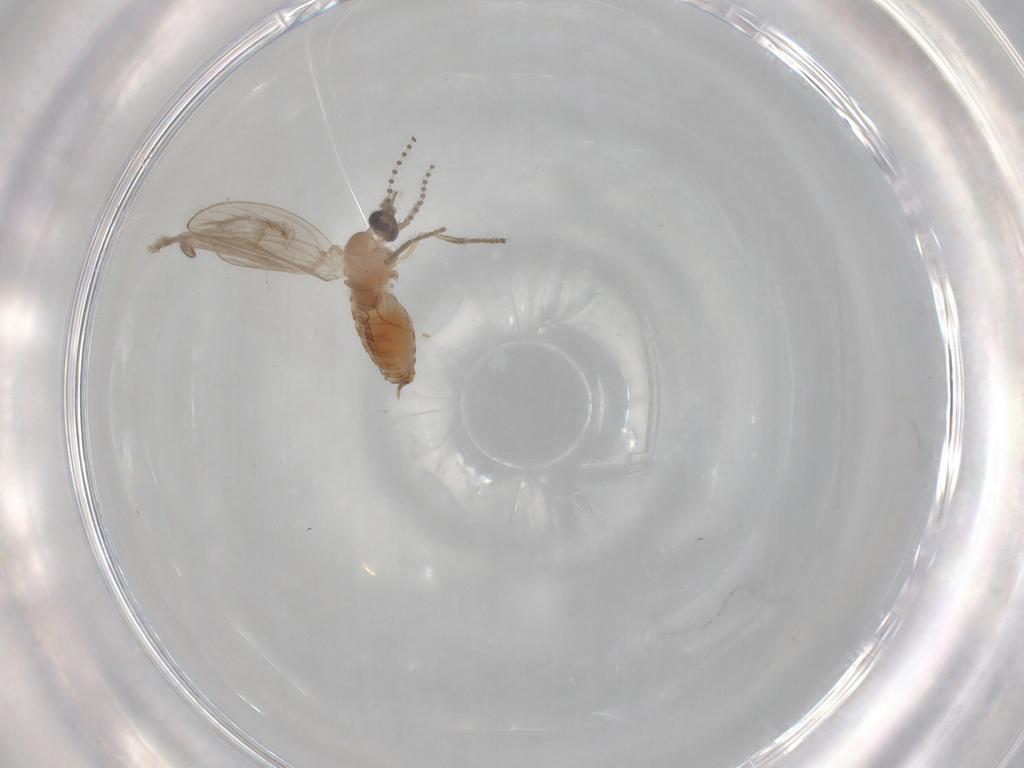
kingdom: Animalia
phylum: Arthropoda
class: Insecta
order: Diptera
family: Psychodidae
